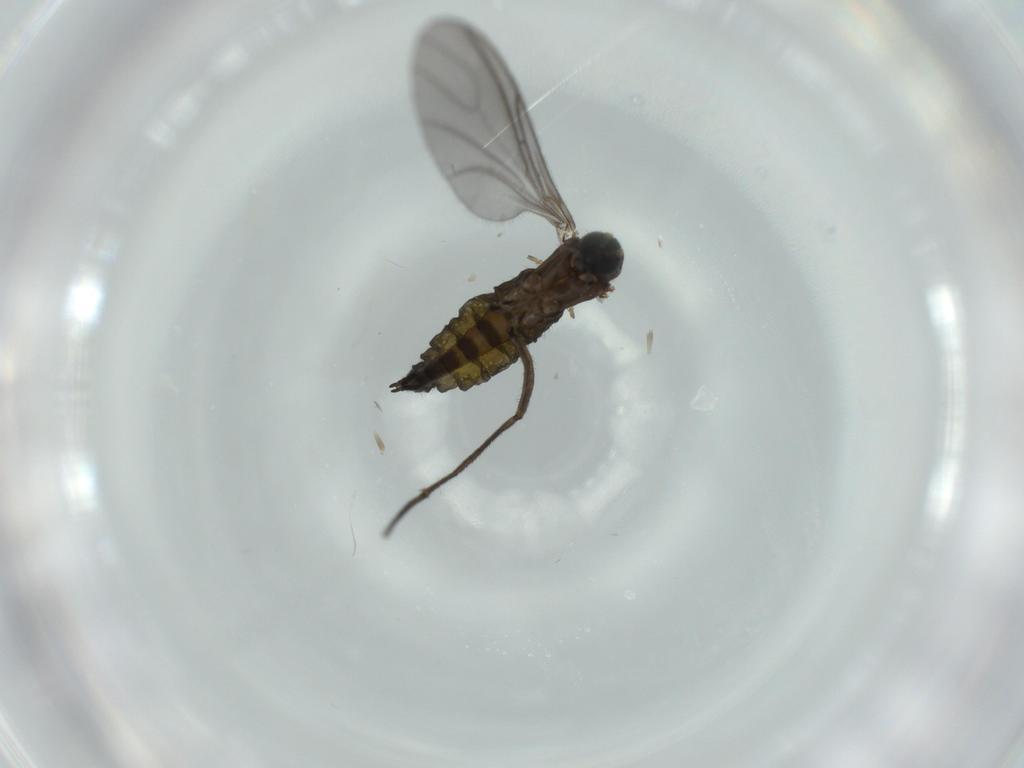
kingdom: Animalia
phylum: Arthropoda
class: Insecta
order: Diptera
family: Sciaridae
